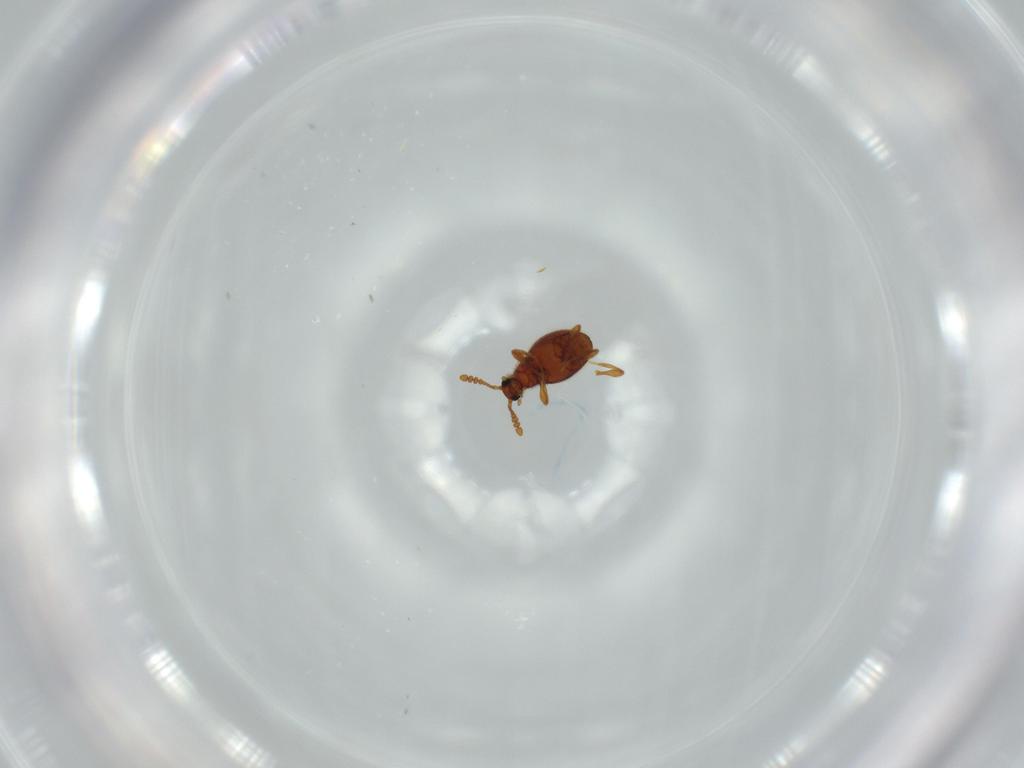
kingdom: Animalia
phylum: Arthropoda
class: Insecta
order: Coleoptera
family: Staphylinidae
